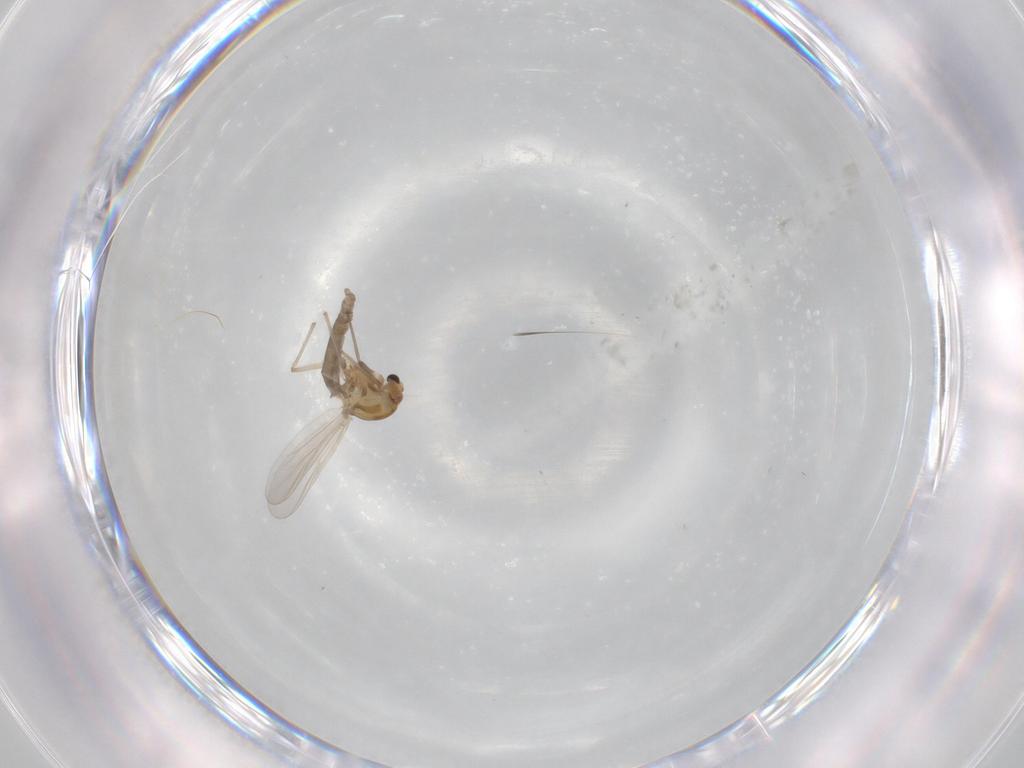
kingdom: Animalia
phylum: Arthropoda
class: Insecta
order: Diptera
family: Chironomidae
